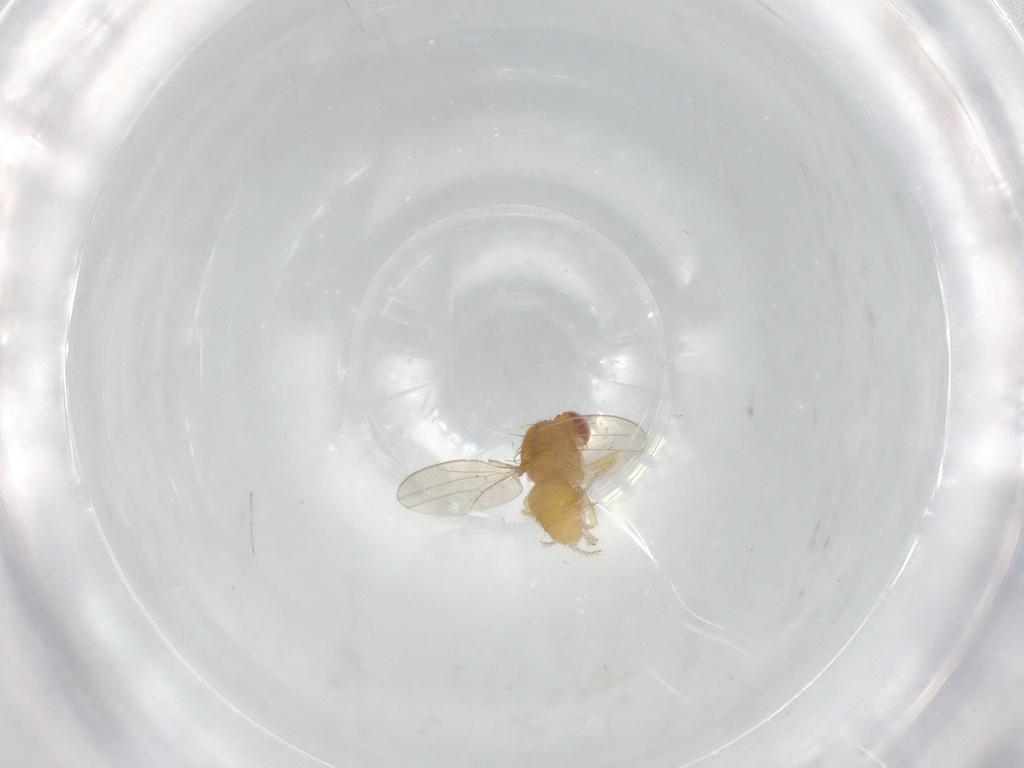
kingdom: Animalia
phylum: Arthropoda
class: Insecta
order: Diptera
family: Drosophilidae
